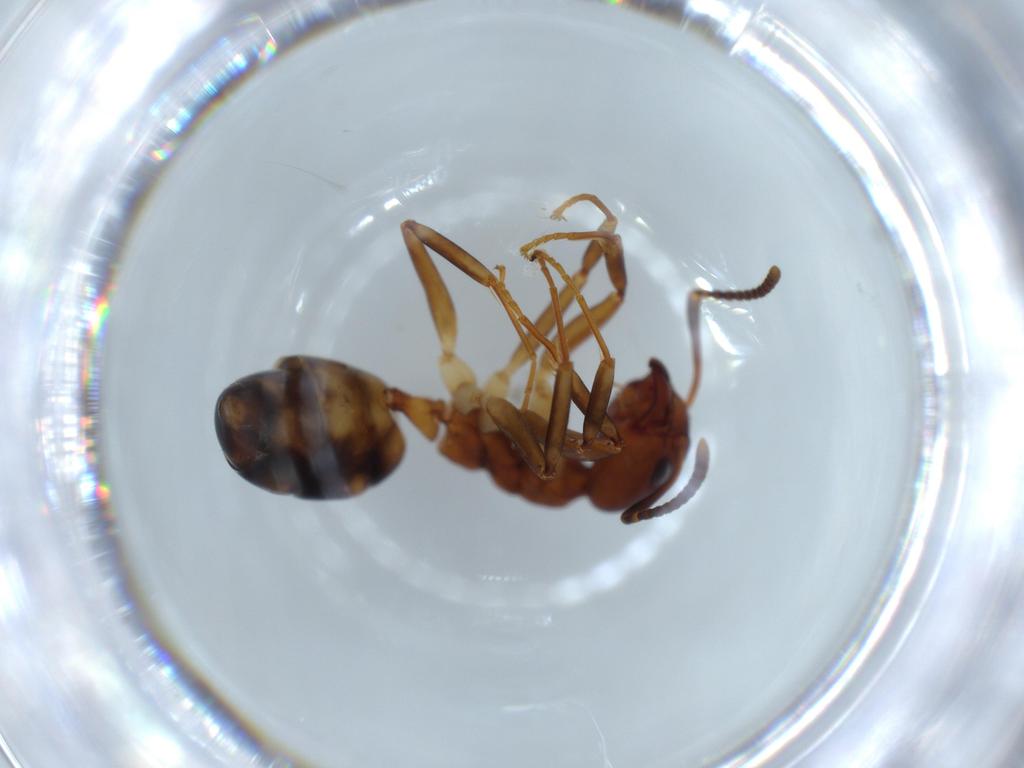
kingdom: Animalia
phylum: Arthropoda
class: Insecta
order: Hymenoptera
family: Formicidae
